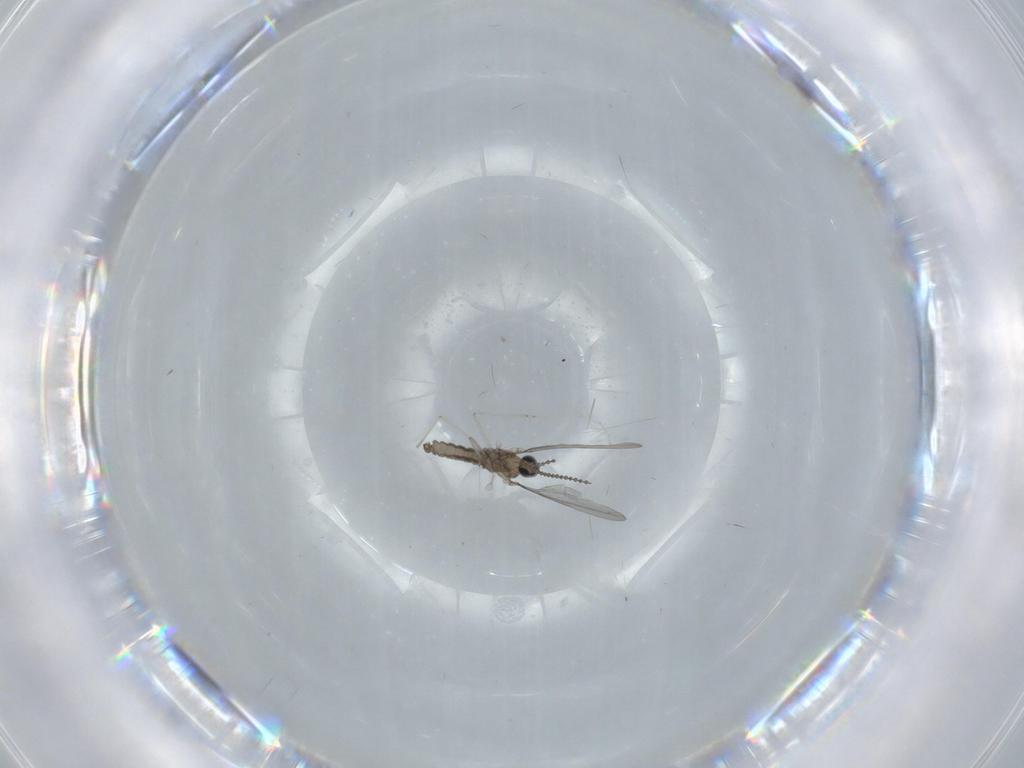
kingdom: Animalia
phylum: Arthropoda
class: Insecta
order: Diptera
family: Cecidomyiidae
